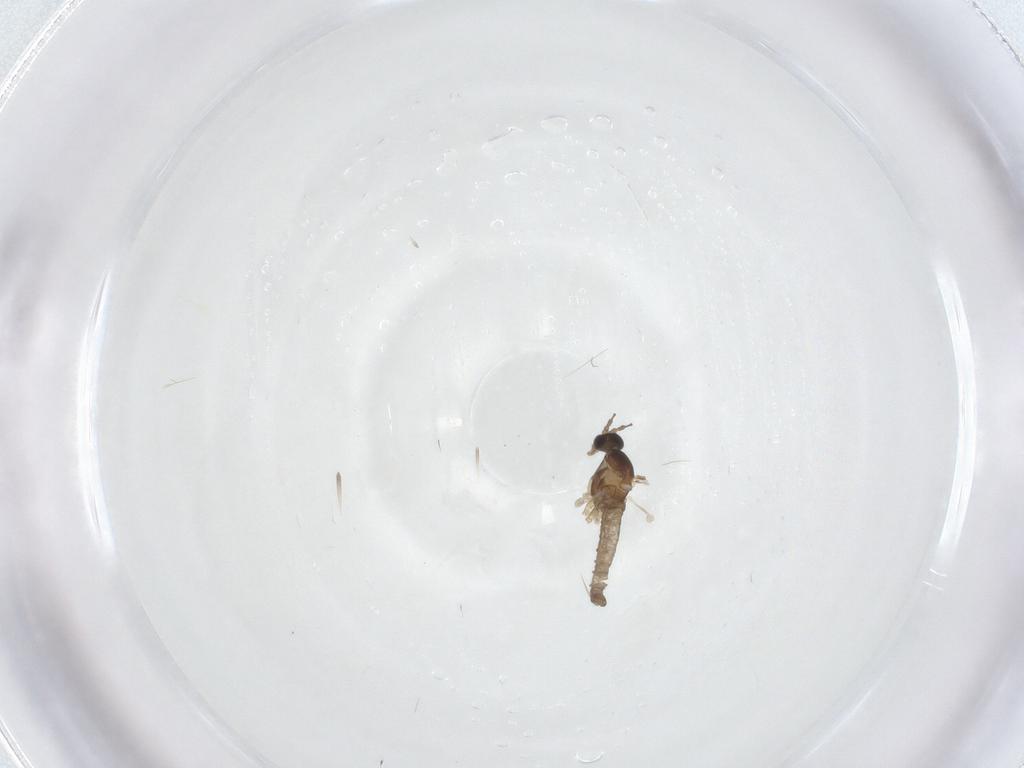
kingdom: Animalia
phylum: Arthropoda
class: Insecta
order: Diptera
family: Cecidomyiidae
